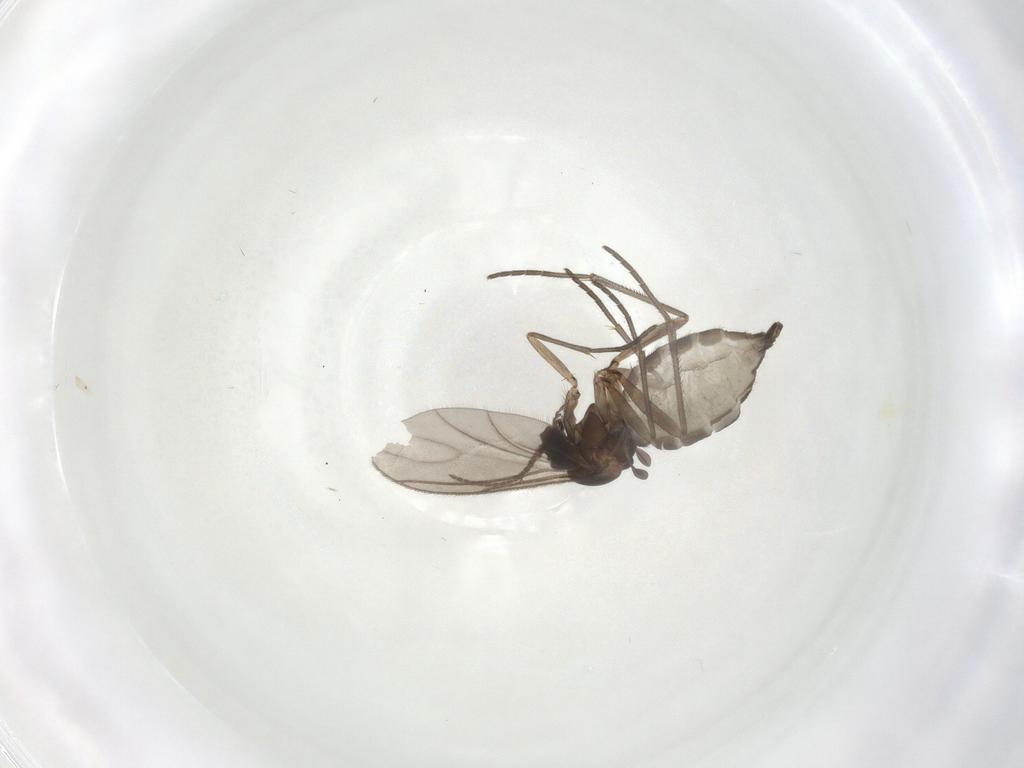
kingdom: Animalia
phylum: Arthropoda
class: Insecta
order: Diptera
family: Sciaridae
